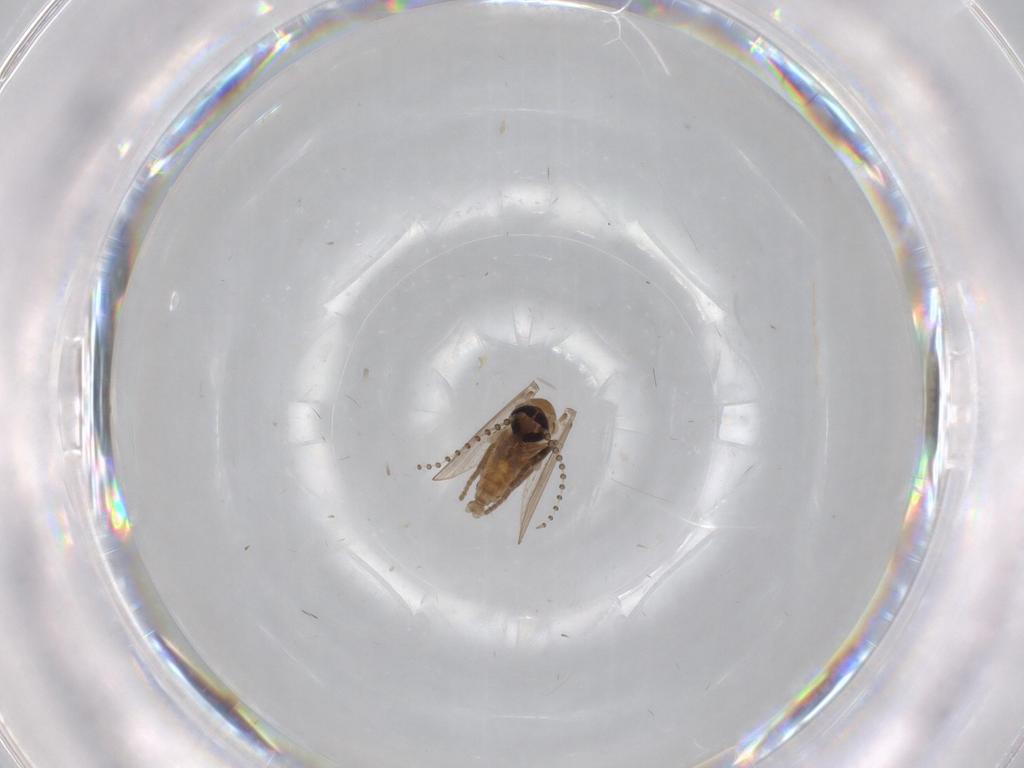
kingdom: Animalia
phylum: Arthropoda
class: Insecta
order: Diptera
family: Psychodidae
